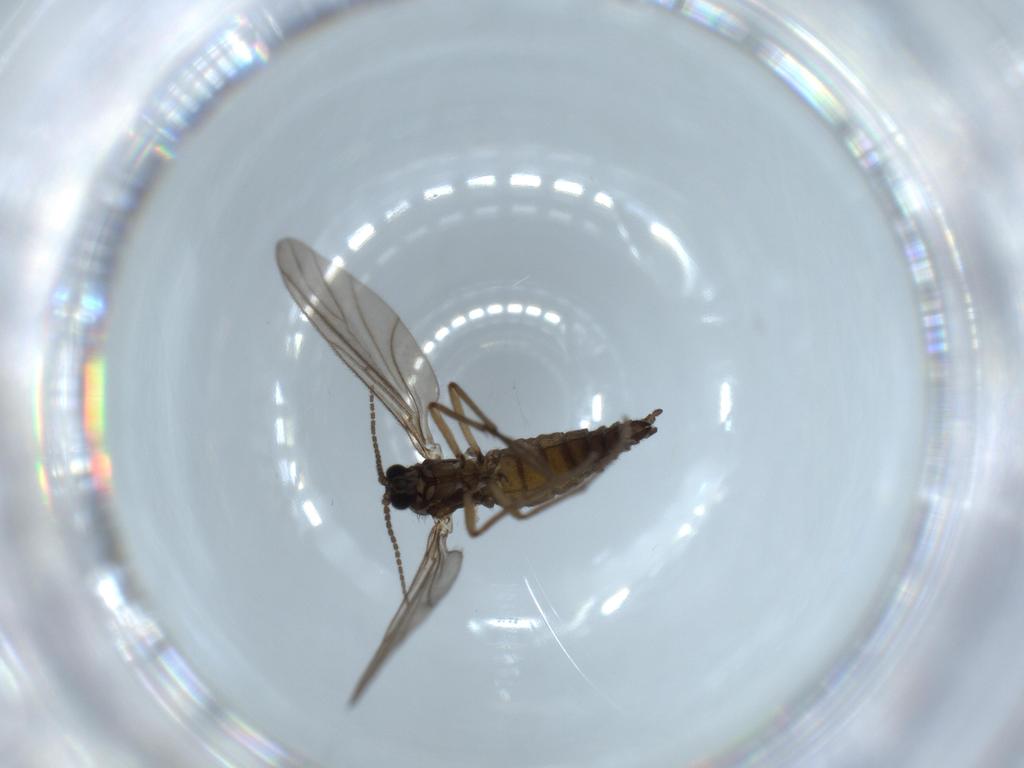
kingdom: Animalia
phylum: Arthropoda
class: Insecta
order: Diptera
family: Sciaridae
